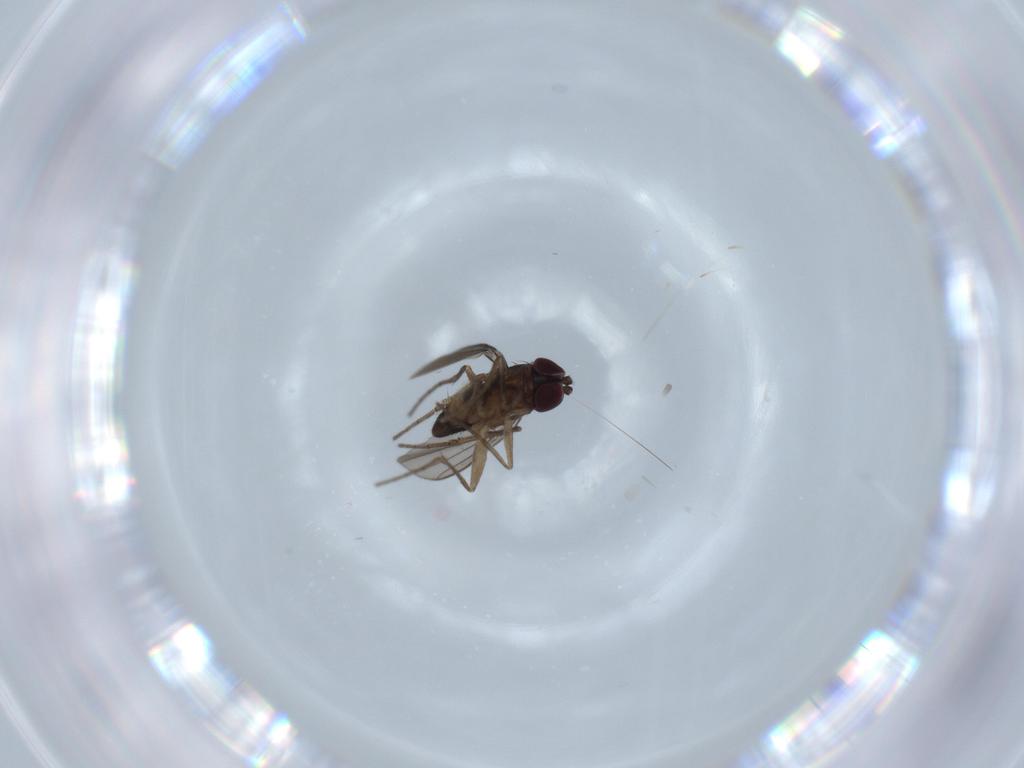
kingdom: Animalia
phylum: Arthropoda
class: Insecta
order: Diptera
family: Dolichopodidae
